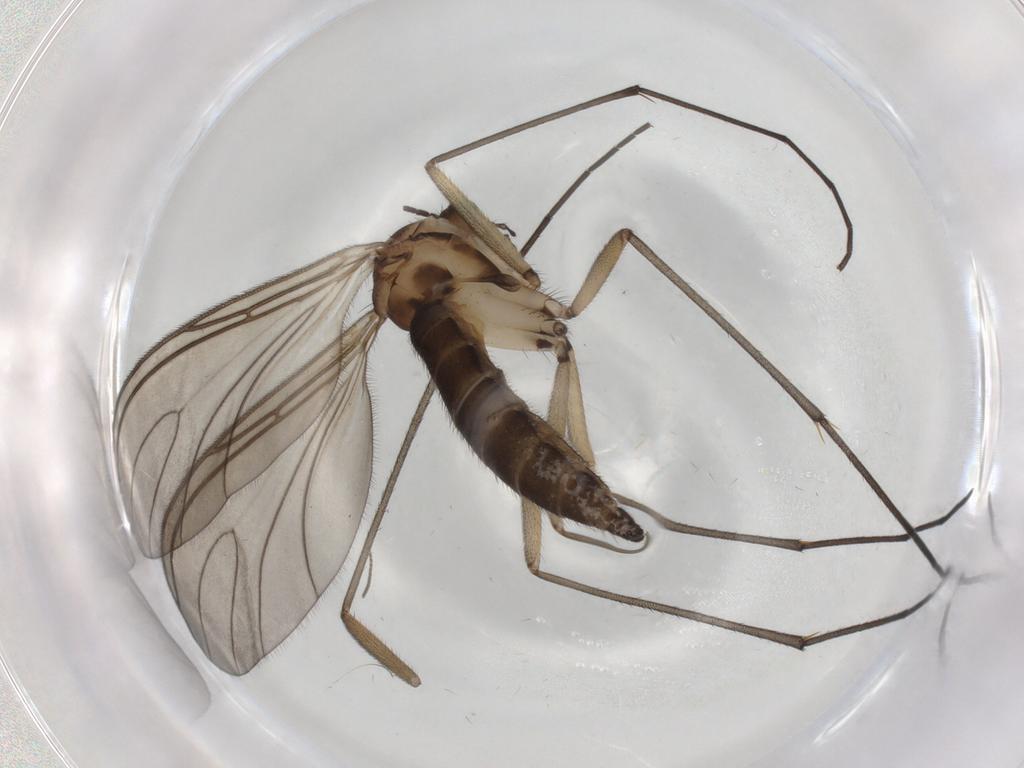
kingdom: Animalia
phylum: Arthropoda
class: Insecta
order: Diptera
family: Sciaridae
